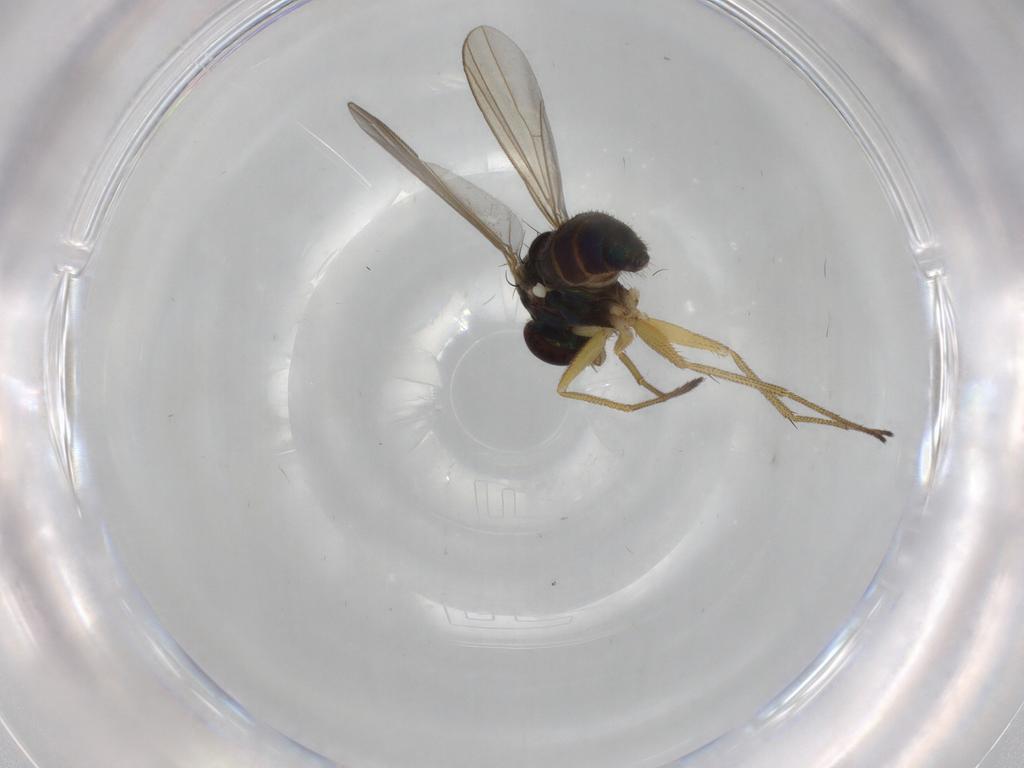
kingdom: Animalia
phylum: Arthropoda
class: Insecta
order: Diptera
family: Dolichopodidae
